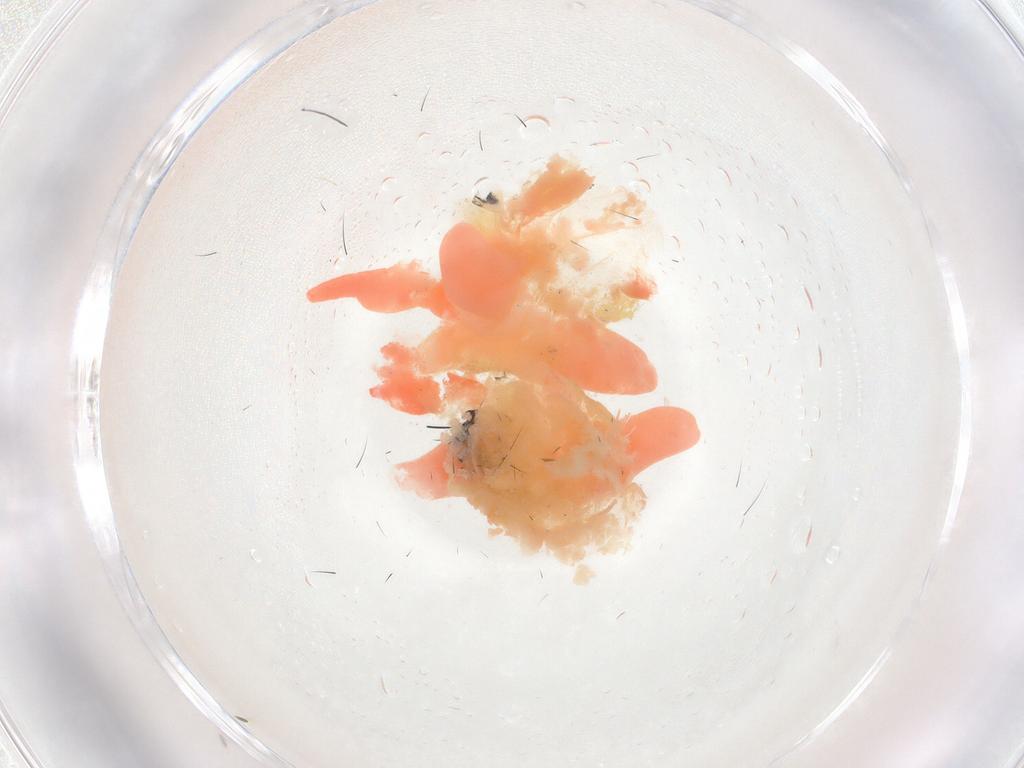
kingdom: Animalia
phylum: Arthropoda
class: Insecta
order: Coleoptera
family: Melyridae
